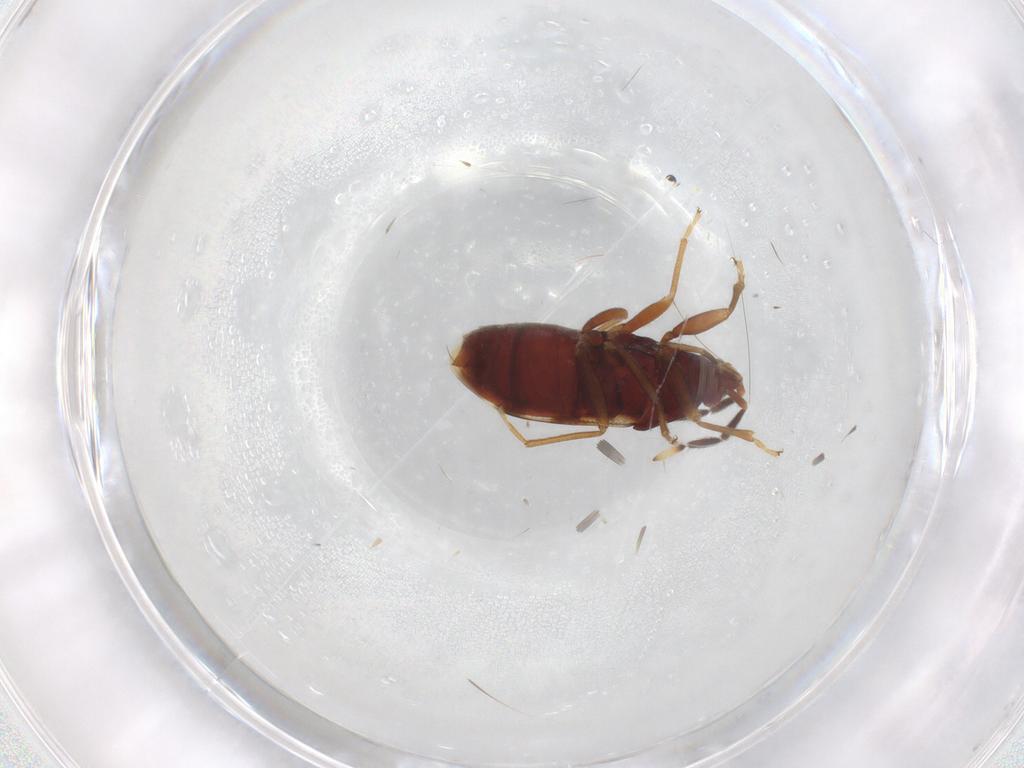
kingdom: Animalia
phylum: Arthropoda
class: Insecta
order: Hemiptera
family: Rhyparochromidae
